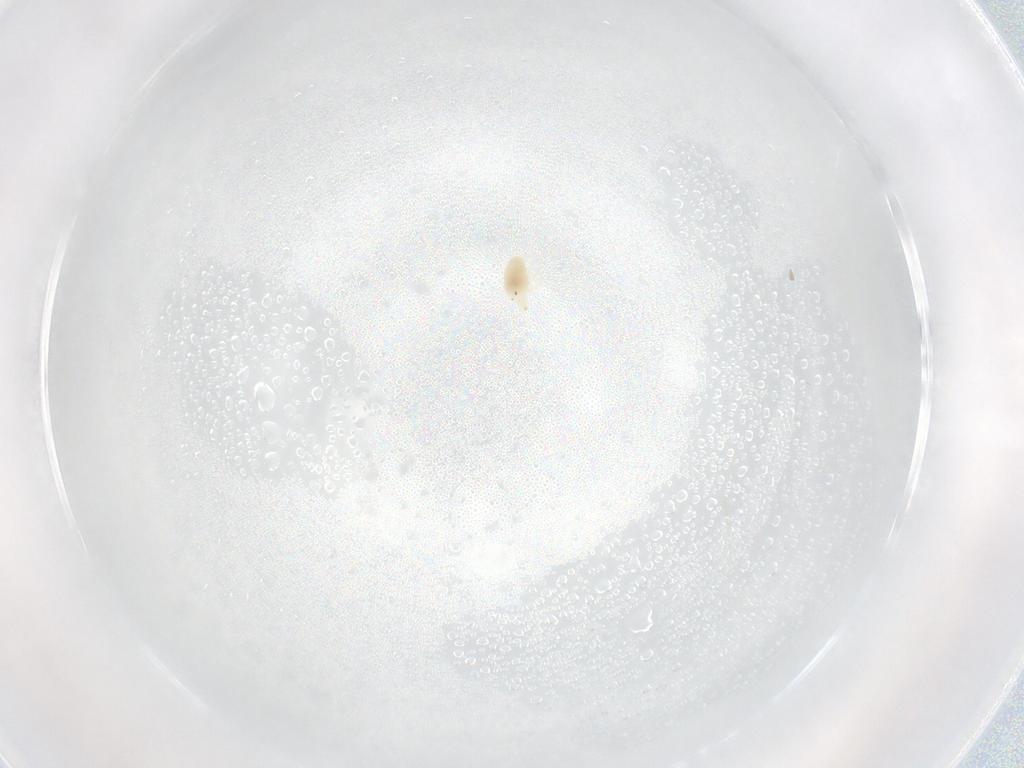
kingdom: Animalia
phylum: Arthropoda
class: Arachnida
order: Trombidiformes
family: Bdellidae
